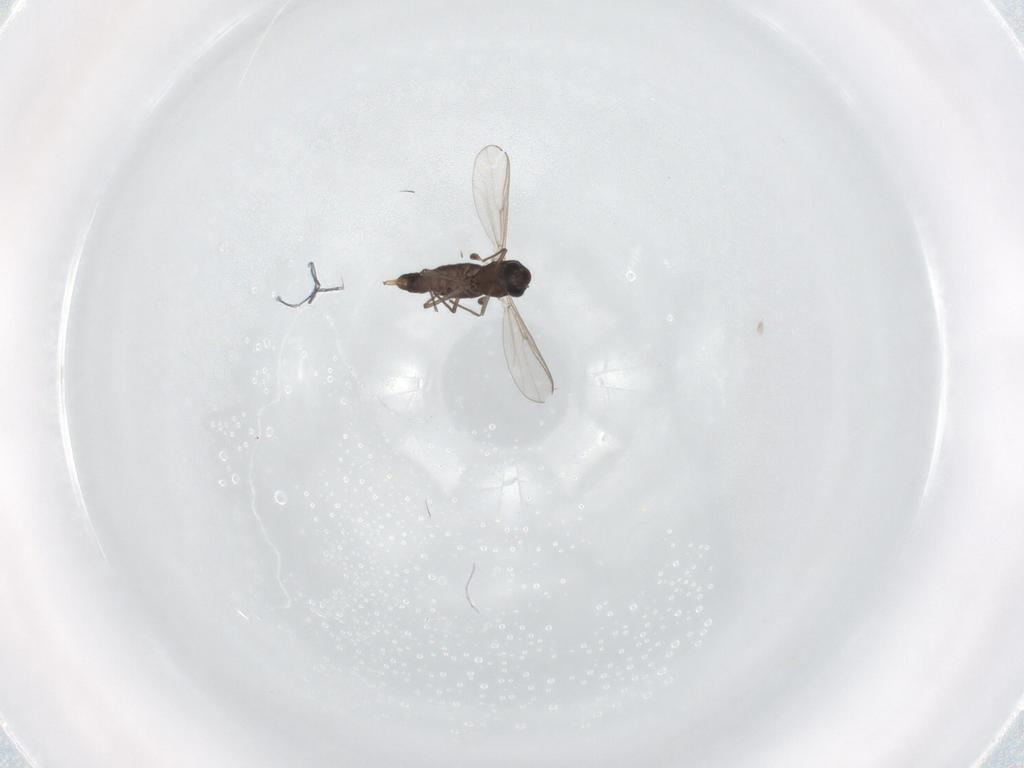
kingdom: Animalia
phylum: Arthropoda
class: Insecta
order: Diptera
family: Chironomidae
